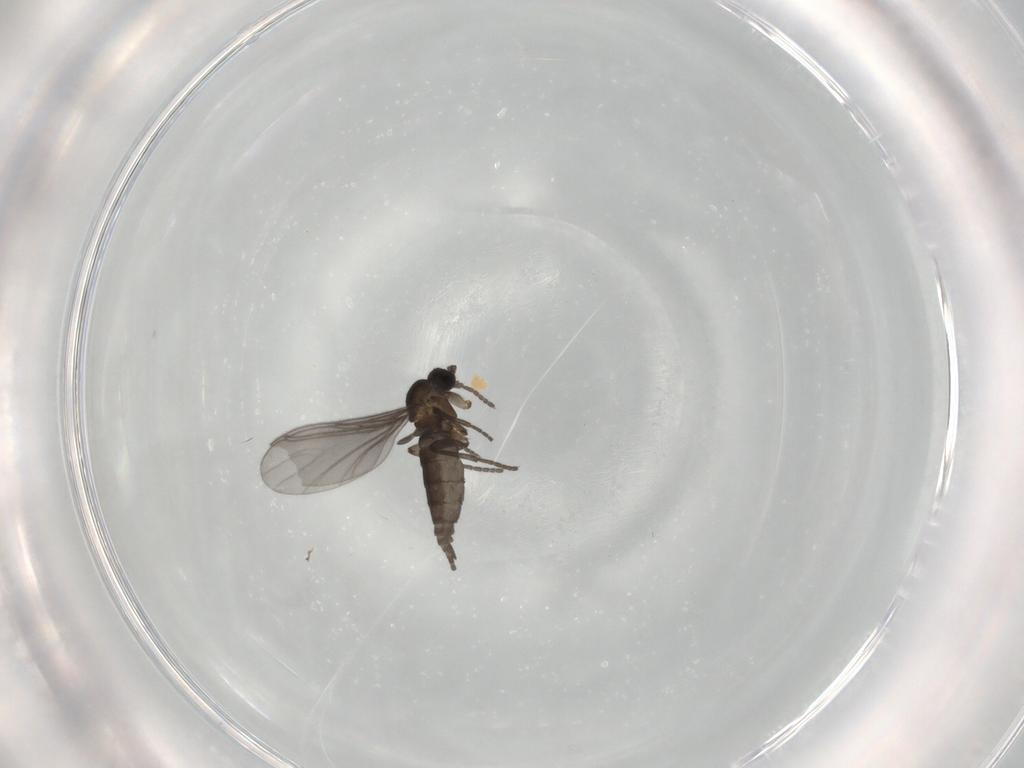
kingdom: Animalia
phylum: Arthropoda
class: Insecta
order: Diptera
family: Sciaridae
